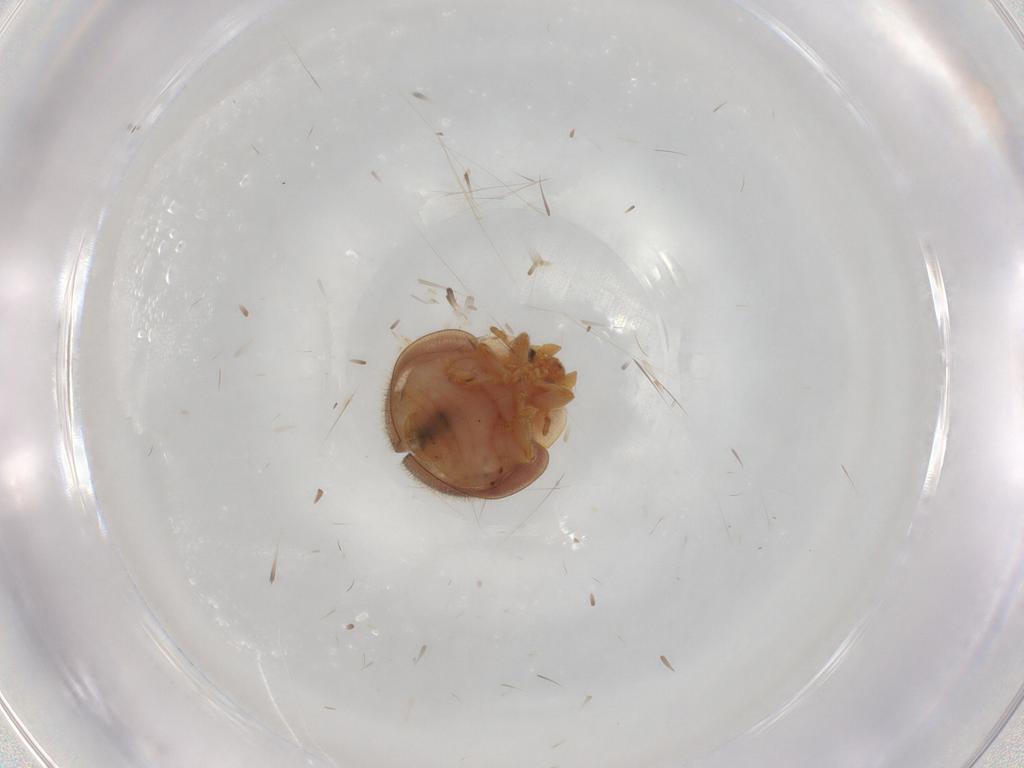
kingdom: Animalia
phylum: Arthropoda
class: Insecta
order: Coleoptera
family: Coccinellidae
